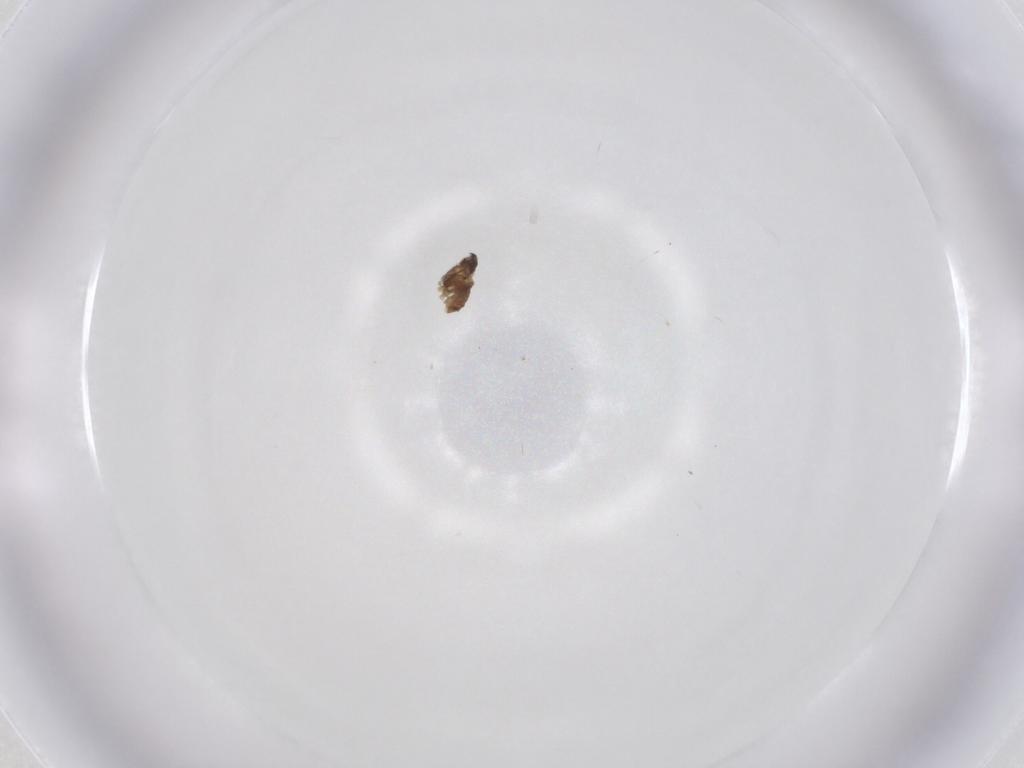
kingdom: Animalia
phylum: Arthropoda
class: Insecta
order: Diptera
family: Cecidomyiidae
